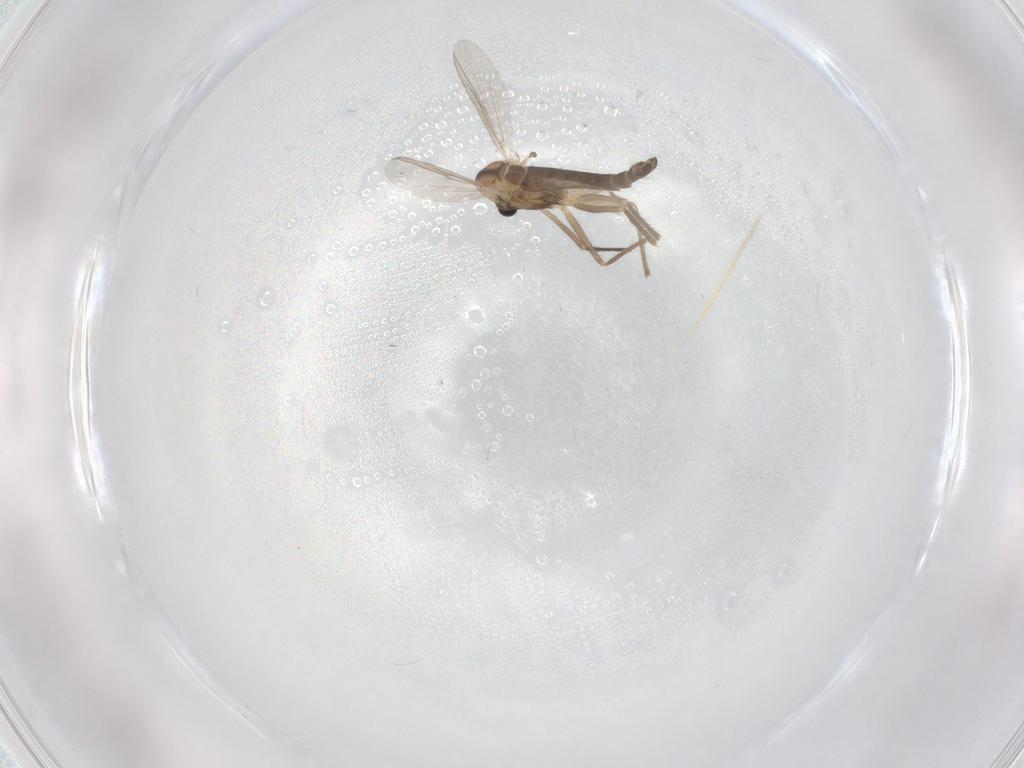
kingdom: Animalia
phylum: Arthropoda
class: Insecta
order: Diptera
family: Chironomidae
